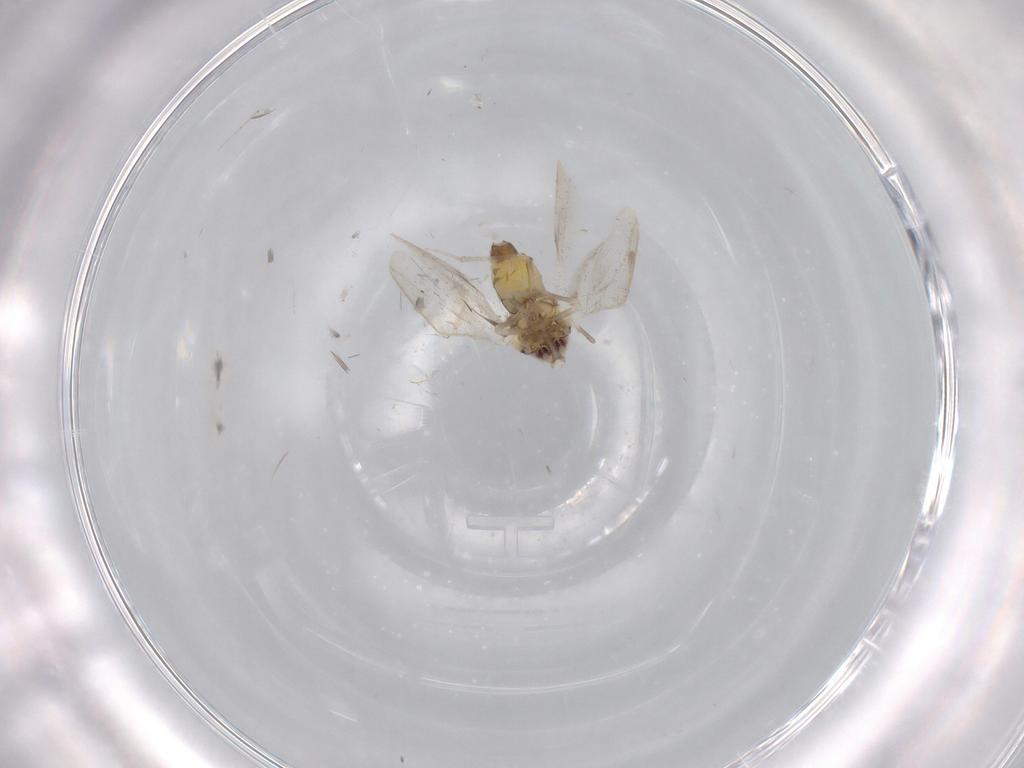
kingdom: Animalia
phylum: Arthropoda
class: Insecta
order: Hemiptera
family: Aleyrodidae
